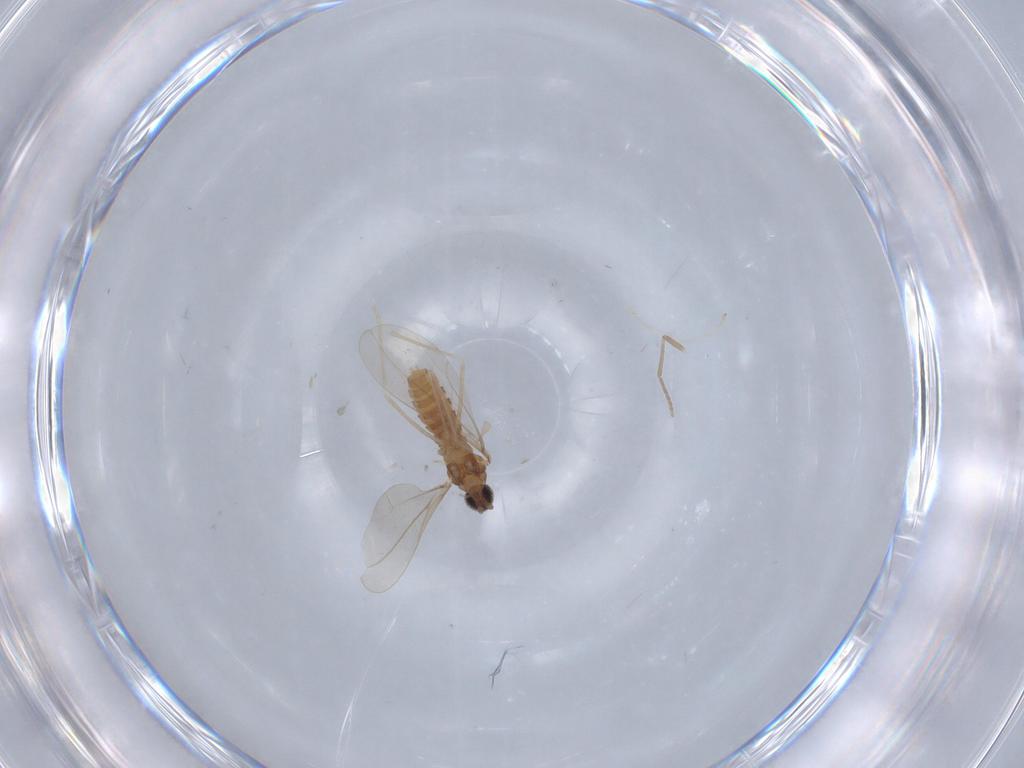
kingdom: Animalia
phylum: Arthropoda
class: Insecta
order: Diptera
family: Cecidomyiidae
